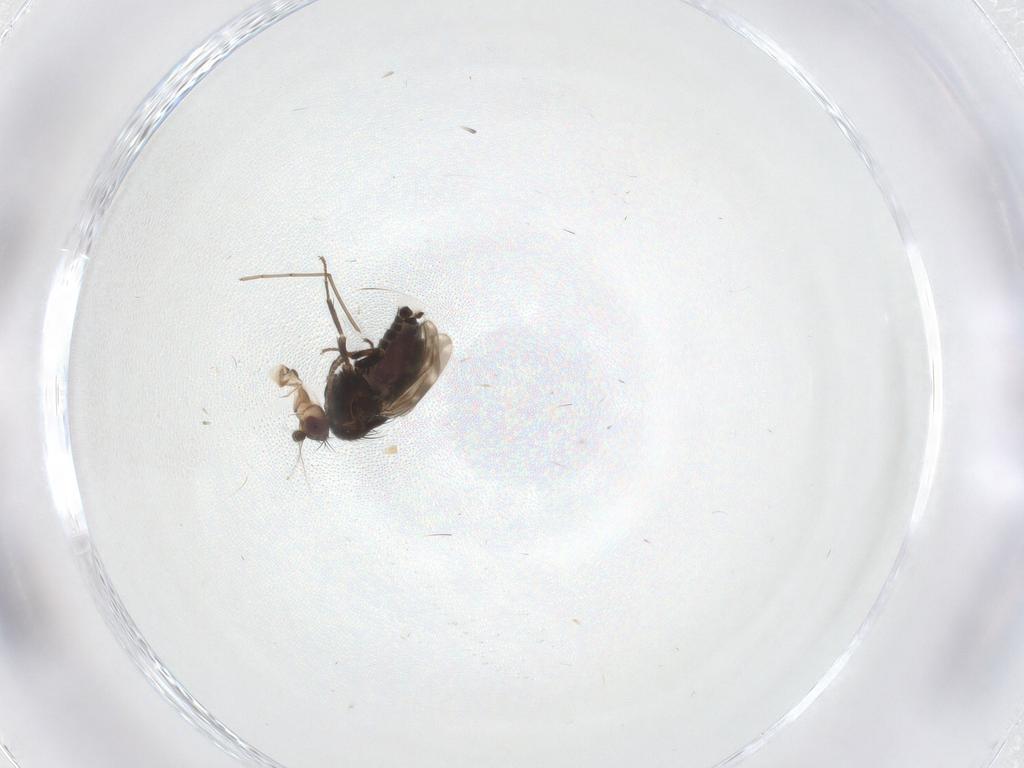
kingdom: Animalia
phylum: Arthropoda
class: Insecta
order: Diptera
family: Sphaeroceridae
